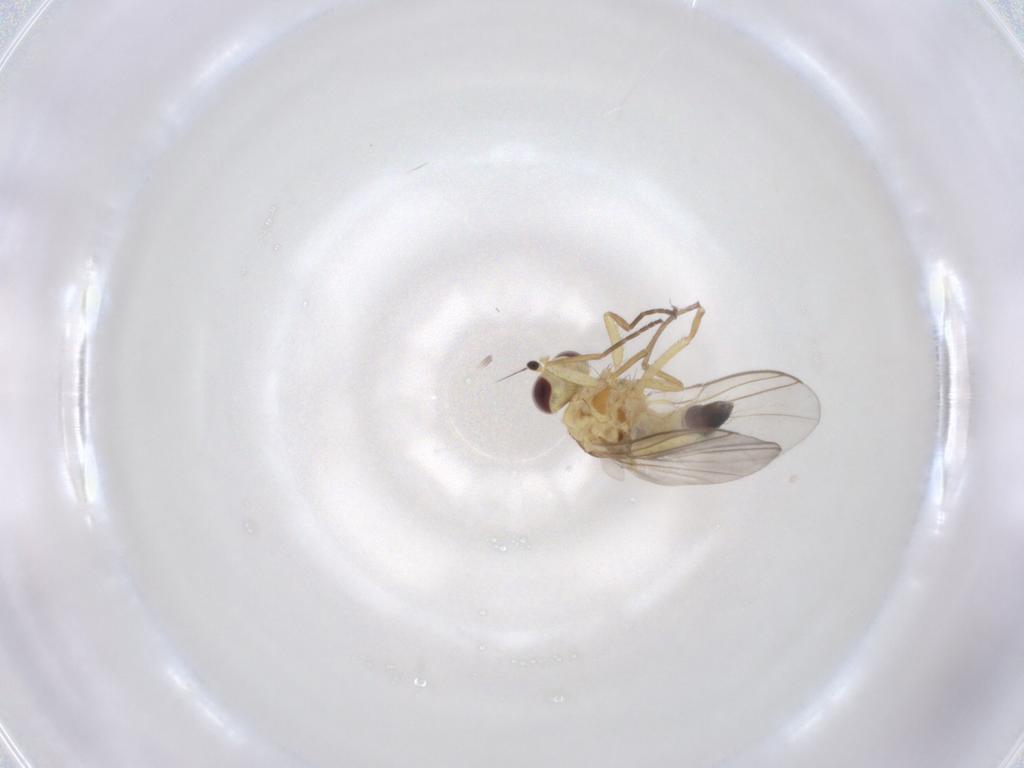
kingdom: Animalia
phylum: Arthropoda
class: Insecta
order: Diptera
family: Agromyzidae
